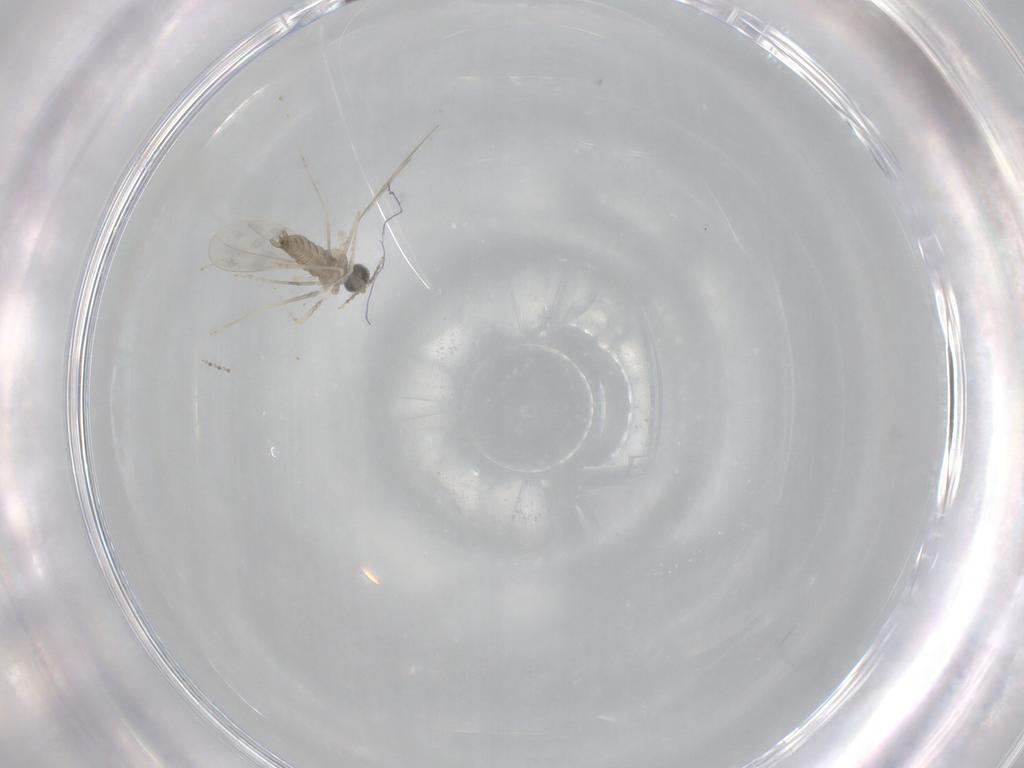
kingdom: Animalia
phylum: Arthropoda
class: Insecta
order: Diptera
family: Cecidomyiidae
